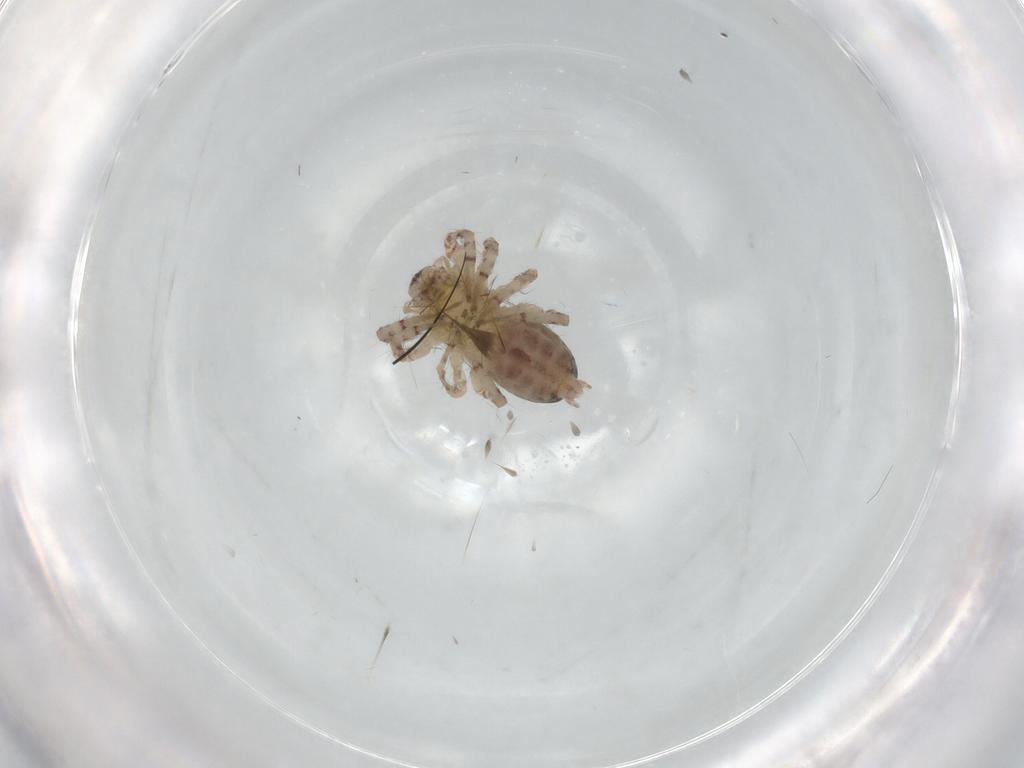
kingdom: Animalia
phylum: Arthropoda
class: Arachnida
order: Araneae
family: Anyphaenidae
